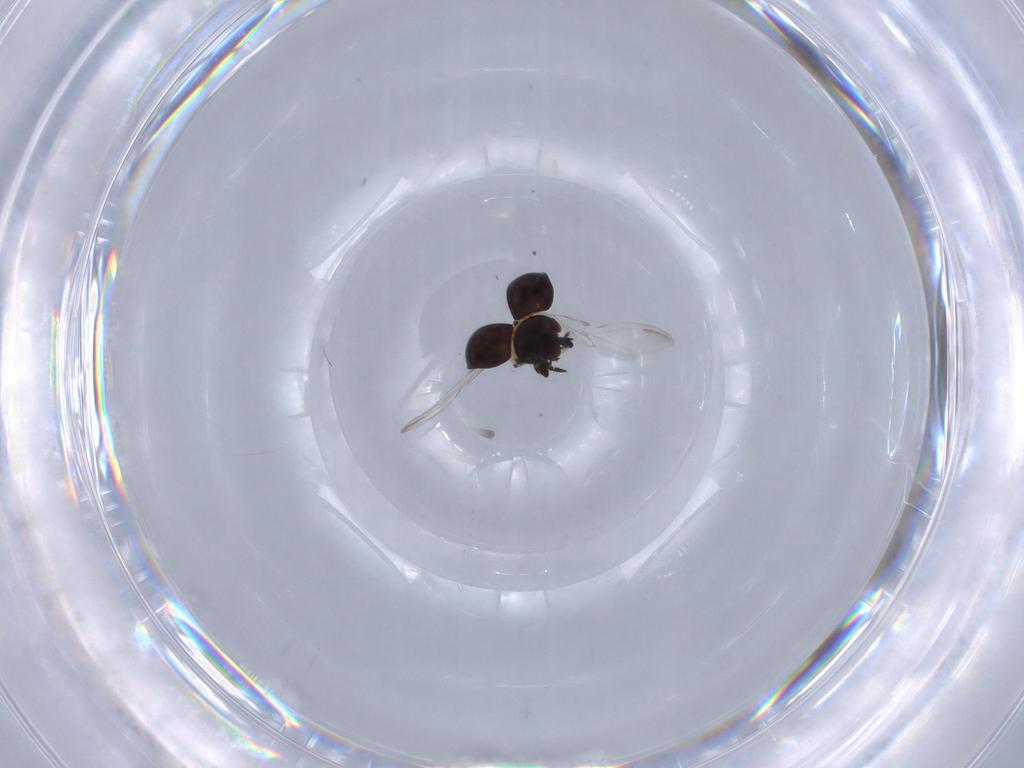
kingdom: Animalia
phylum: Arthropoda
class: Insecta
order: Coleoptera
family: Coccinellidae
